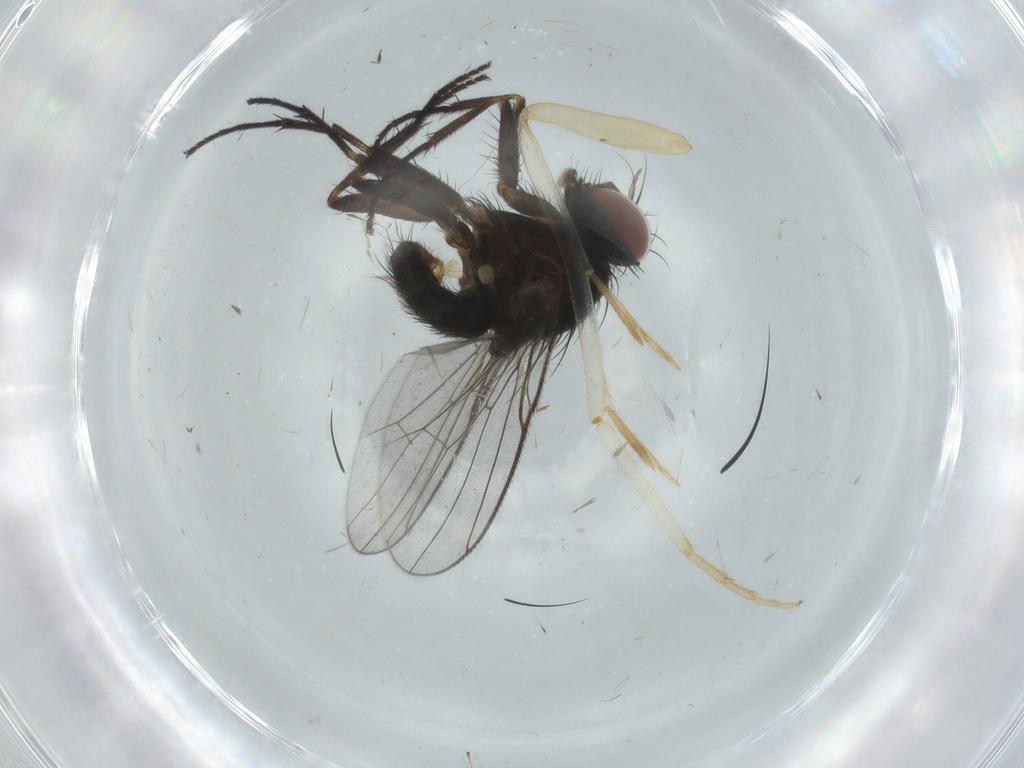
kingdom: Animalia
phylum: Arthropoda
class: Insecta
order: Diptera
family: Muscidae
